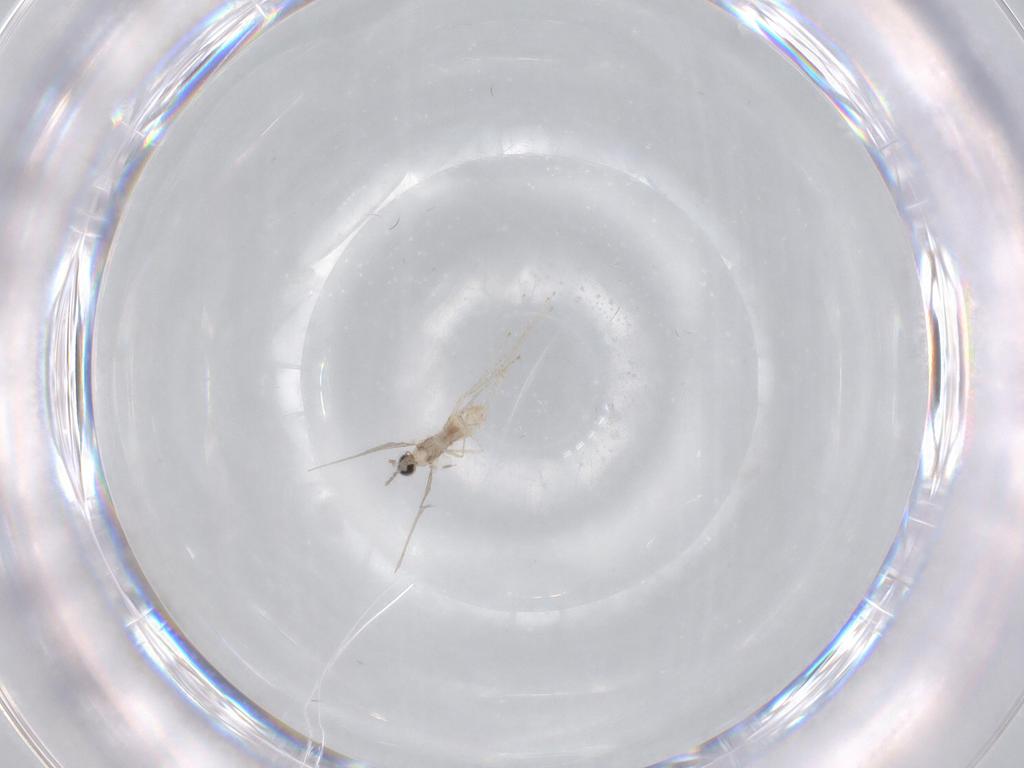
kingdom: Animalia
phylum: Arthropoda
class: Insecta
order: Diptera
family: Cecidomyiidae
